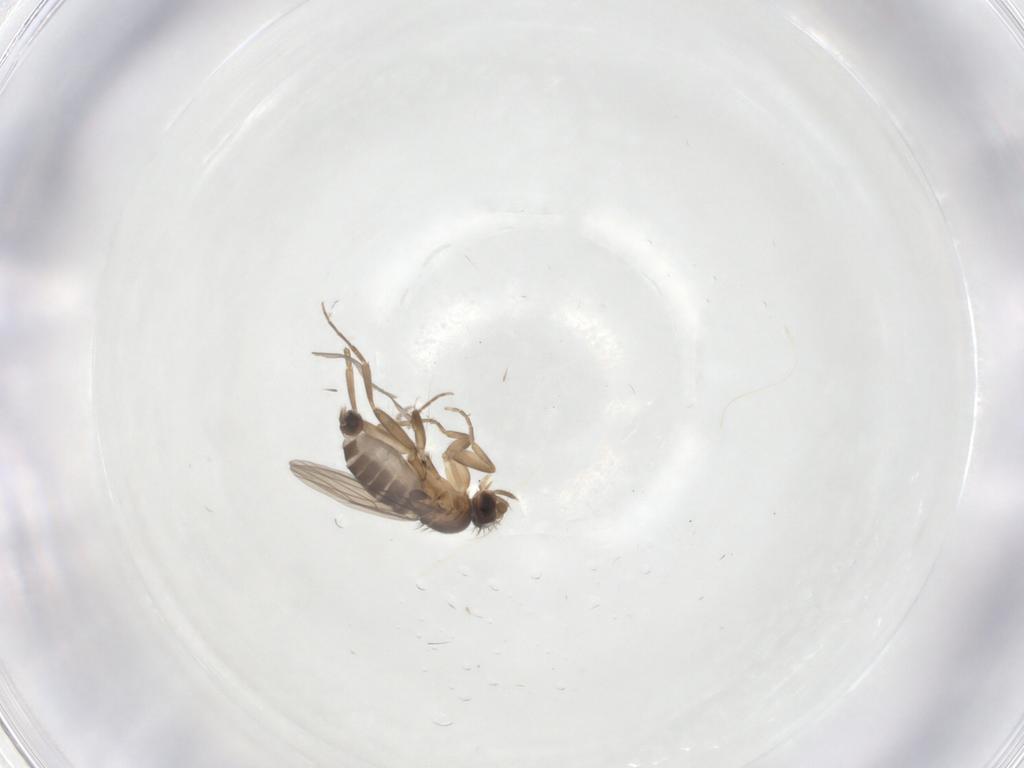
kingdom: Animalia
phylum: Arthropoda
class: Insecta
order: Diptera
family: Phoridae
